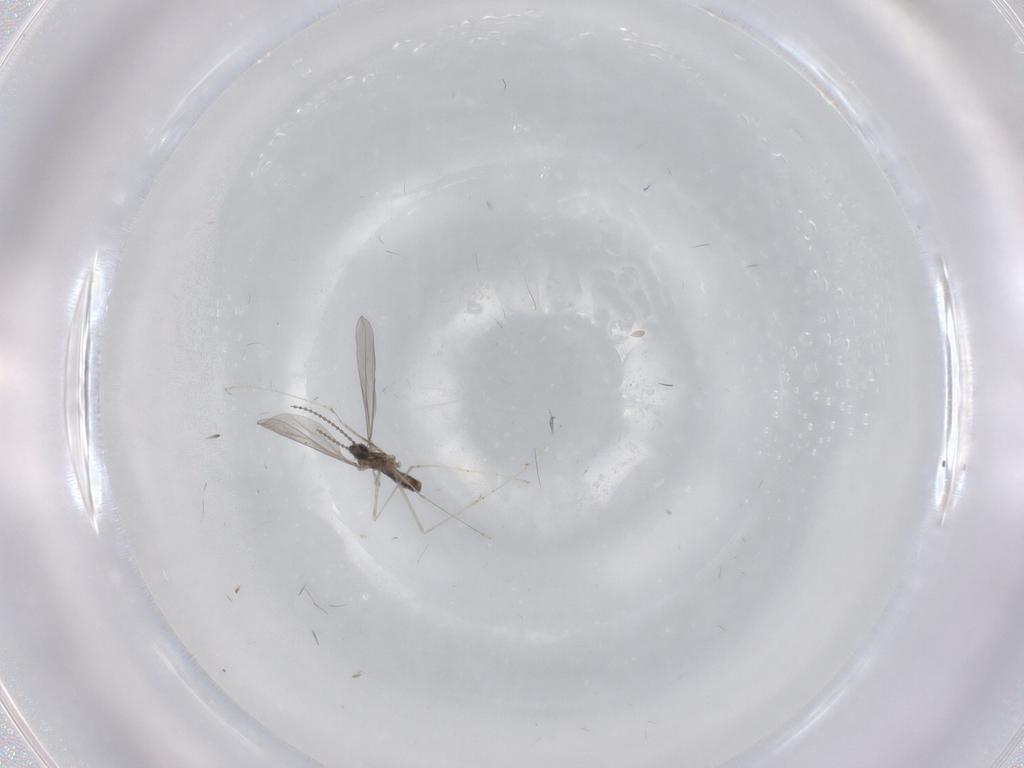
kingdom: Animalia
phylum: Arthropoda
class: Insecta
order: Diptera
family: Chironomidae
